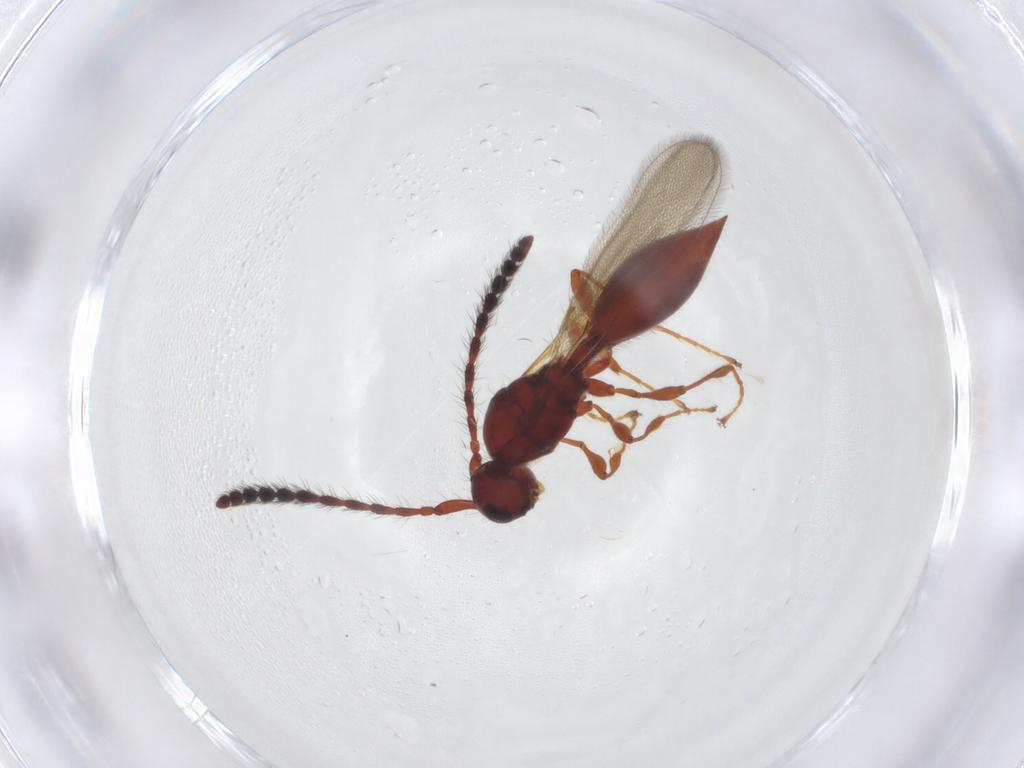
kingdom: Animalia
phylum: Arthropoda
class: Insecta
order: Hymenoptera
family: Diapriidae
